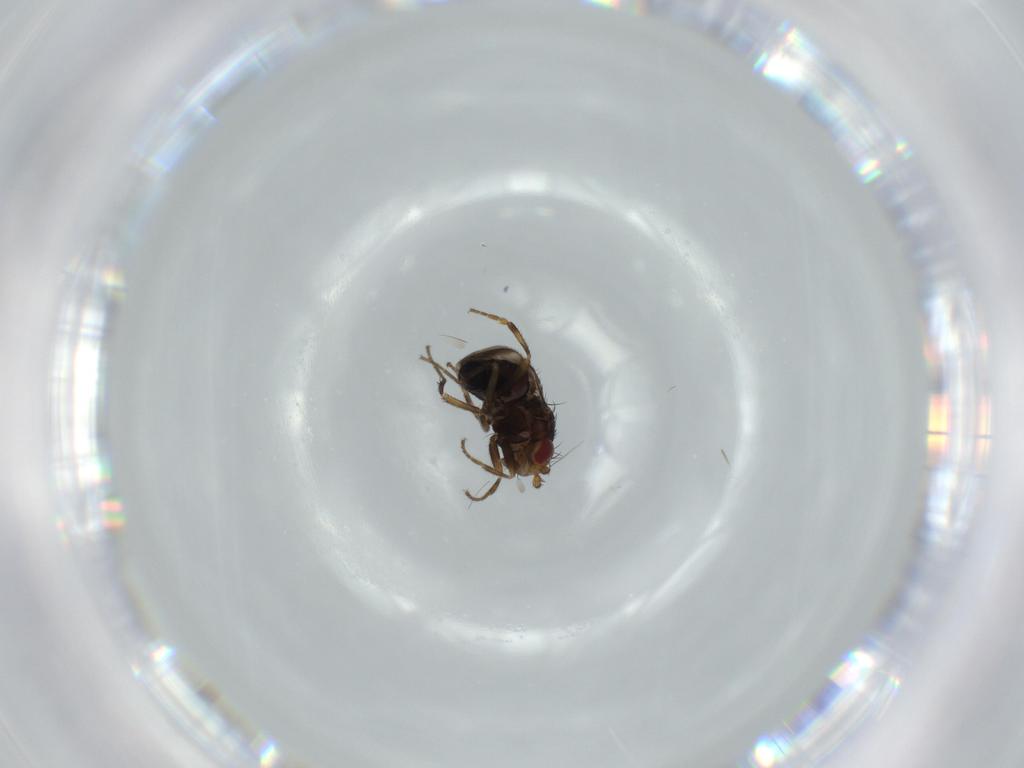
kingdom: Animalia
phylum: Arthropoda
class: Insecta
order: Diptera
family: Sphaeroceridae
